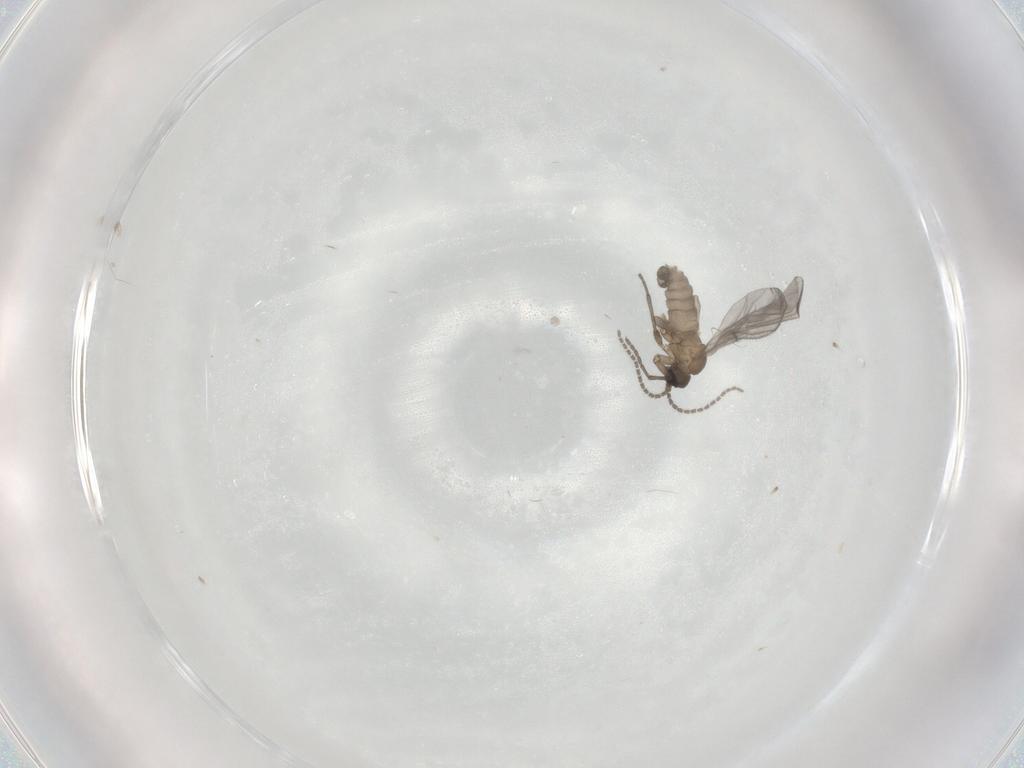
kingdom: Animalia
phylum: Arthropoda
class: Insecta
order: Diptera
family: Sciaridae
